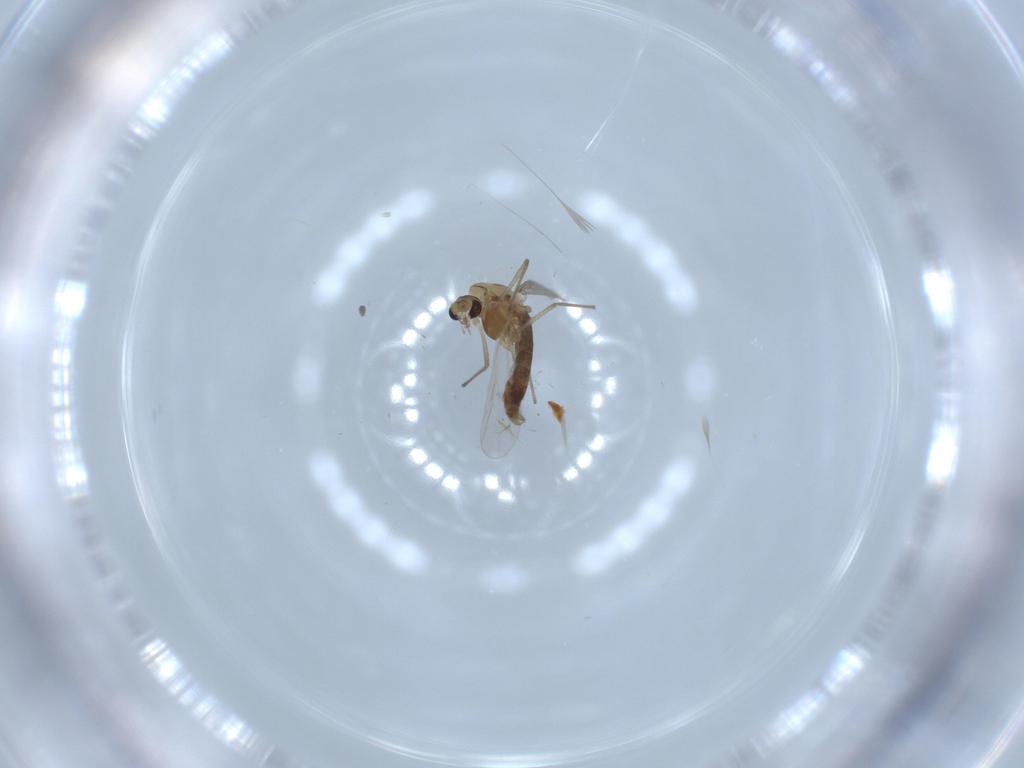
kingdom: Animalia
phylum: Arthropoda
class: Insecta
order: Diptera
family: Chironomidae
